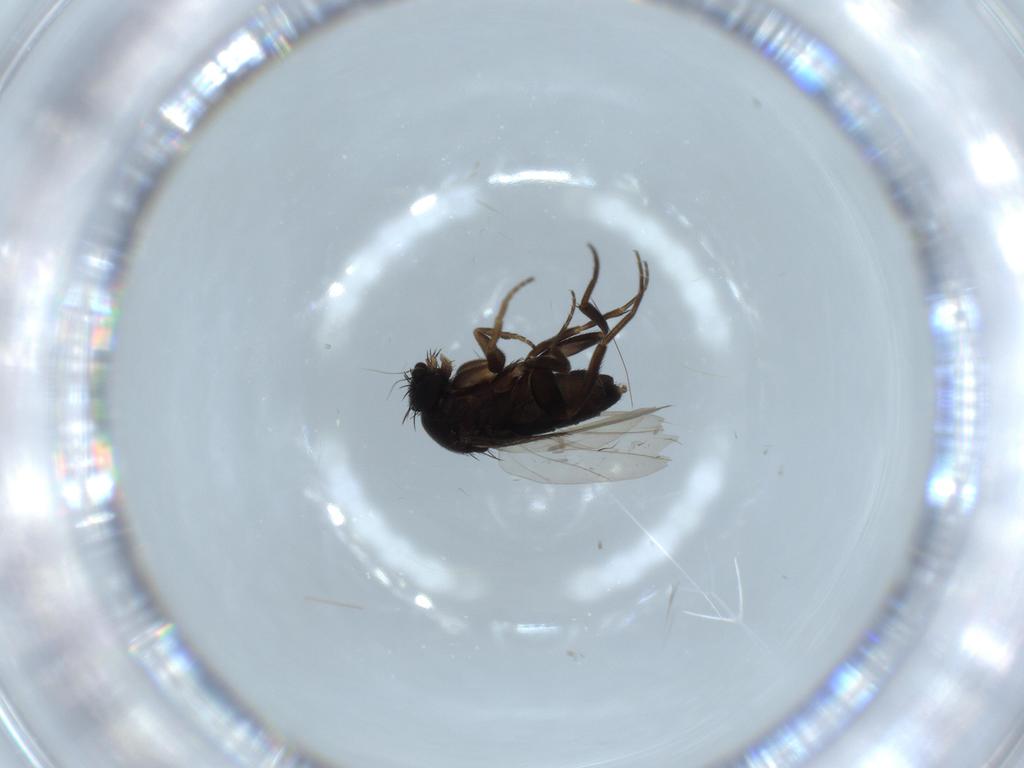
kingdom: Animalia
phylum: Arthropoda
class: Insecta
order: Diptera
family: Phoridae
